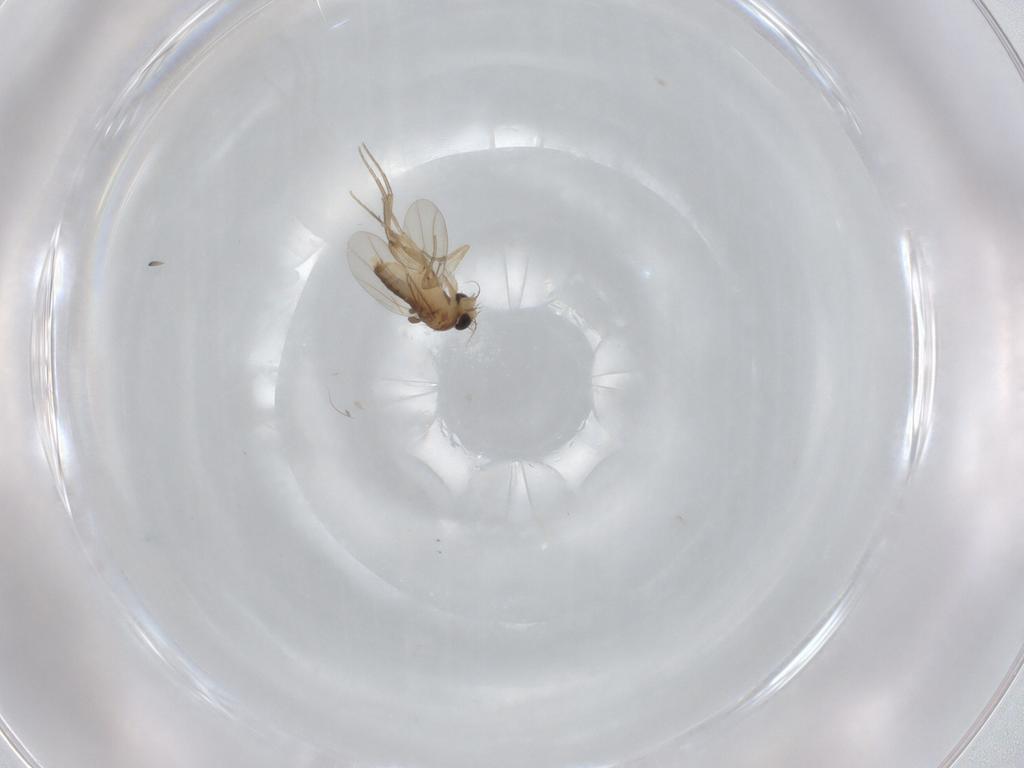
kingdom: Animalia
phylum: Arthropoda
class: Insecta
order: Diptera
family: Phoridae
